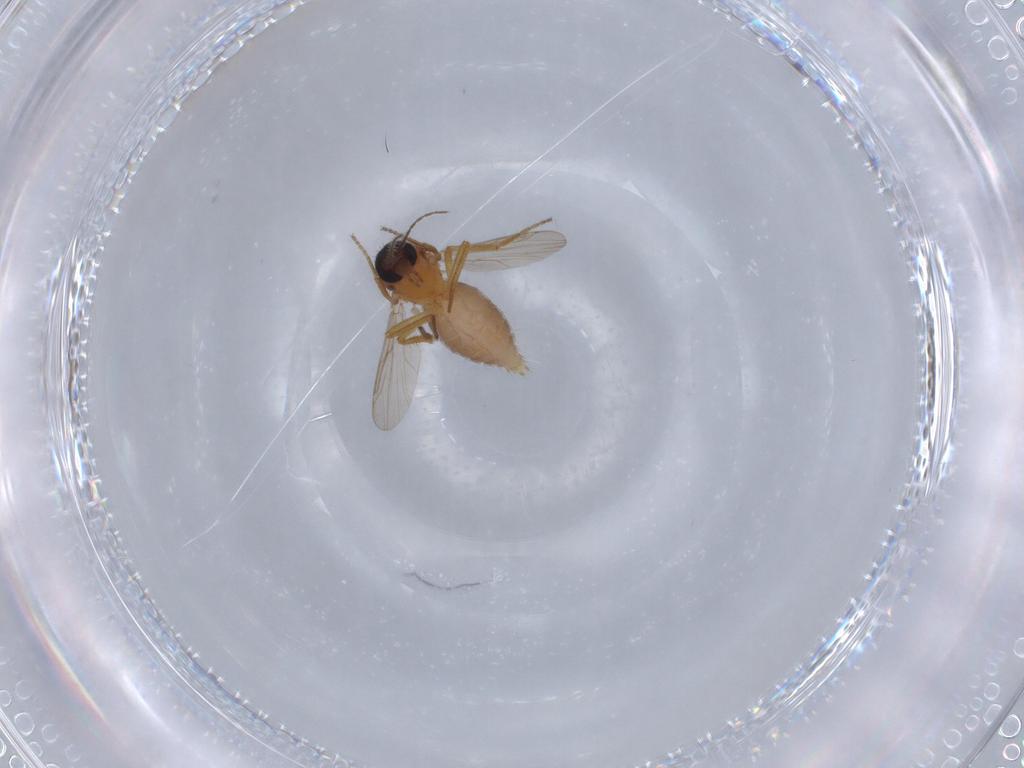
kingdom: Animalia
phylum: Arthropoda
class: Insecta
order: Diptera
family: Ceratopogonidae
